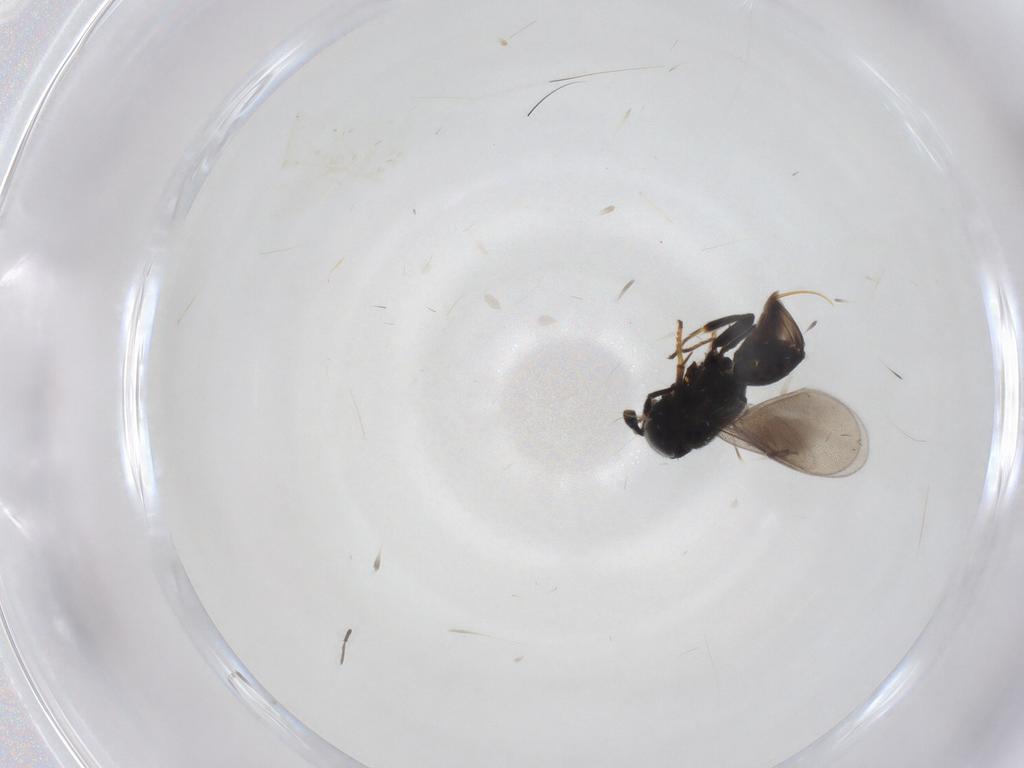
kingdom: Animalia
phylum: Arthropoda
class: Insecta
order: Hymenoptera
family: Encyrtidae
